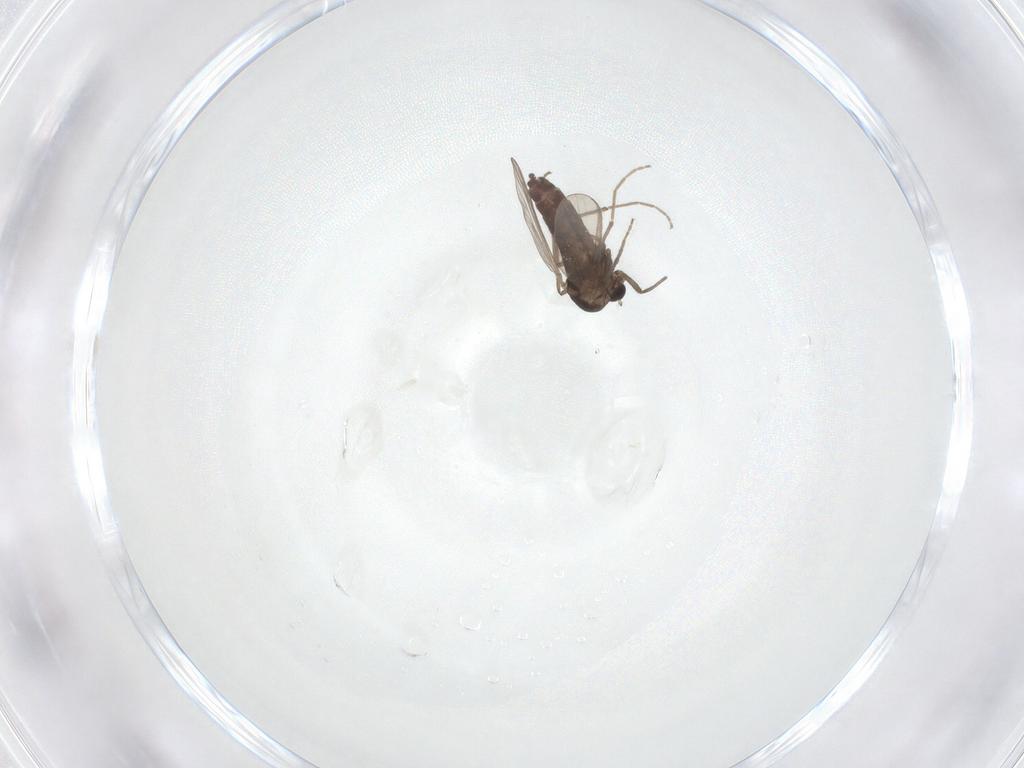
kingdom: Animalia
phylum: Arthropoda
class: Insecta
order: Diptera
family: Chironomidae
